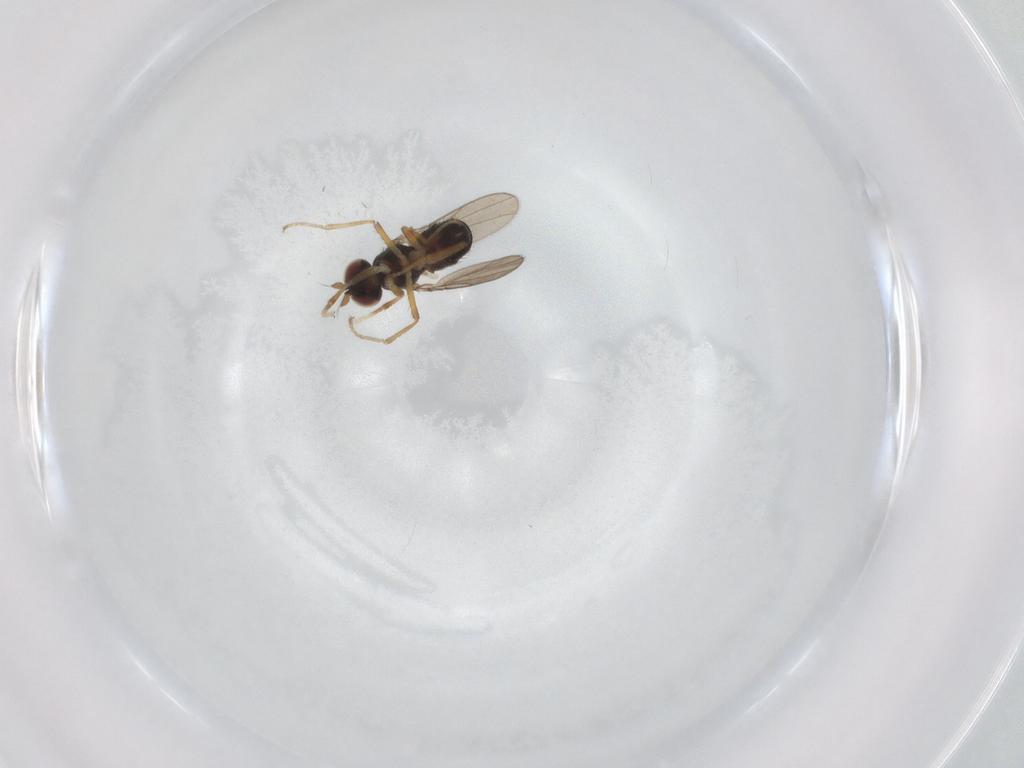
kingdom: Animalia
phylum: Arthropoda
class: Insecta
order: Diptera
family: Ephydridae
